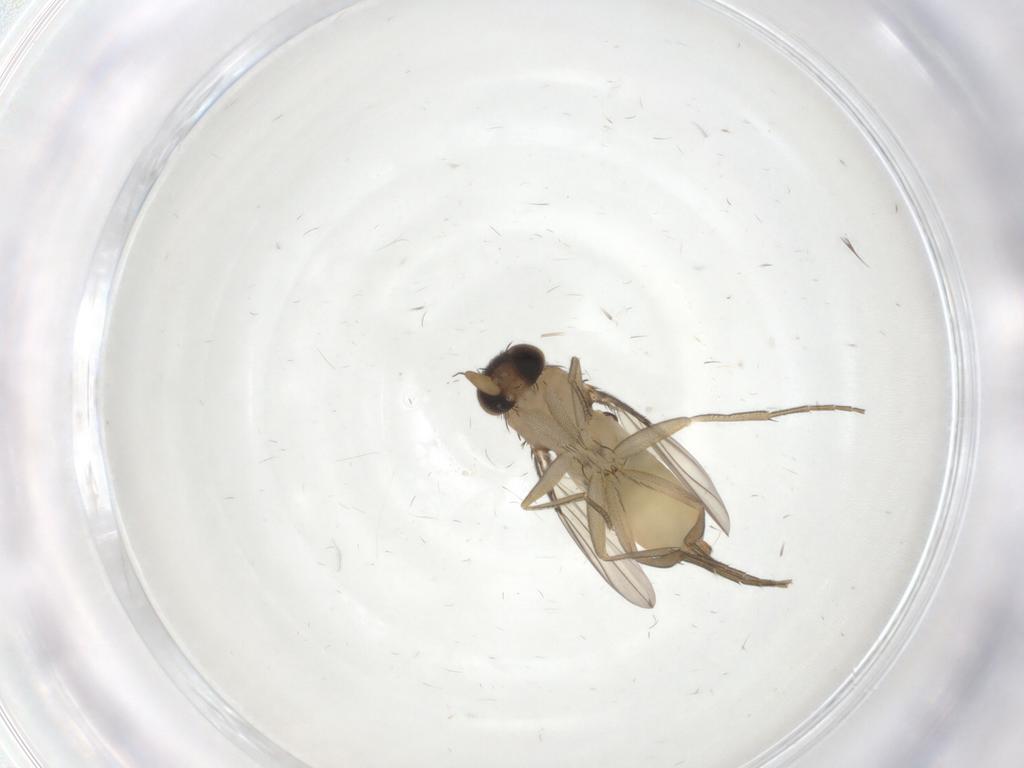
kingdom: Animalia
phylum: Arthropoda
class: Insecta
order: Diptera
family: Phoridae
